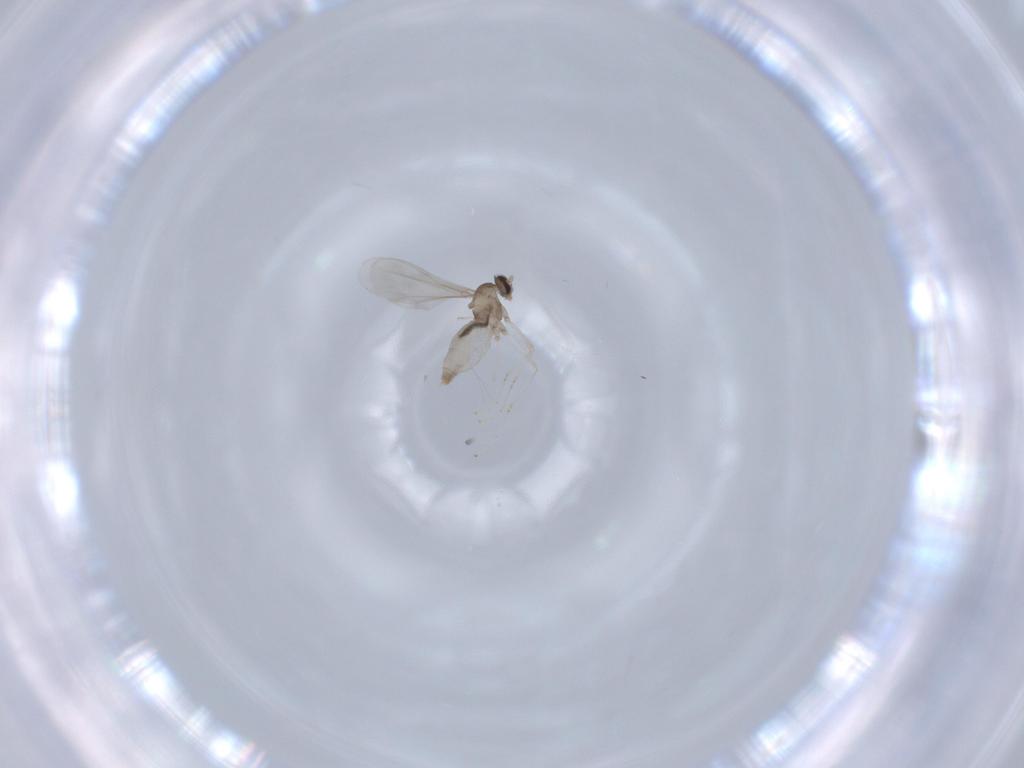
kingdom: Animalia
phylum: Arthropoda
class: Insecta
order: Diptera
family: Cecidomyiidae
